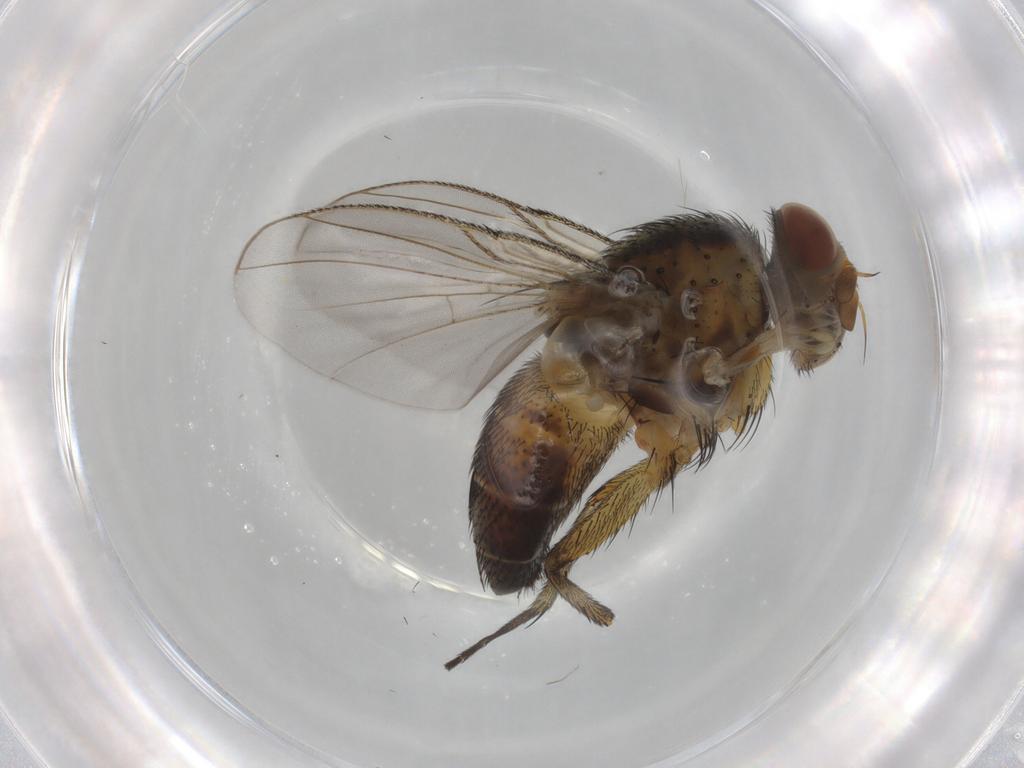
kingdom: Animalia
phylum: Arthropoda
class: Insecta
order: Diptera
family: Tachinidae
